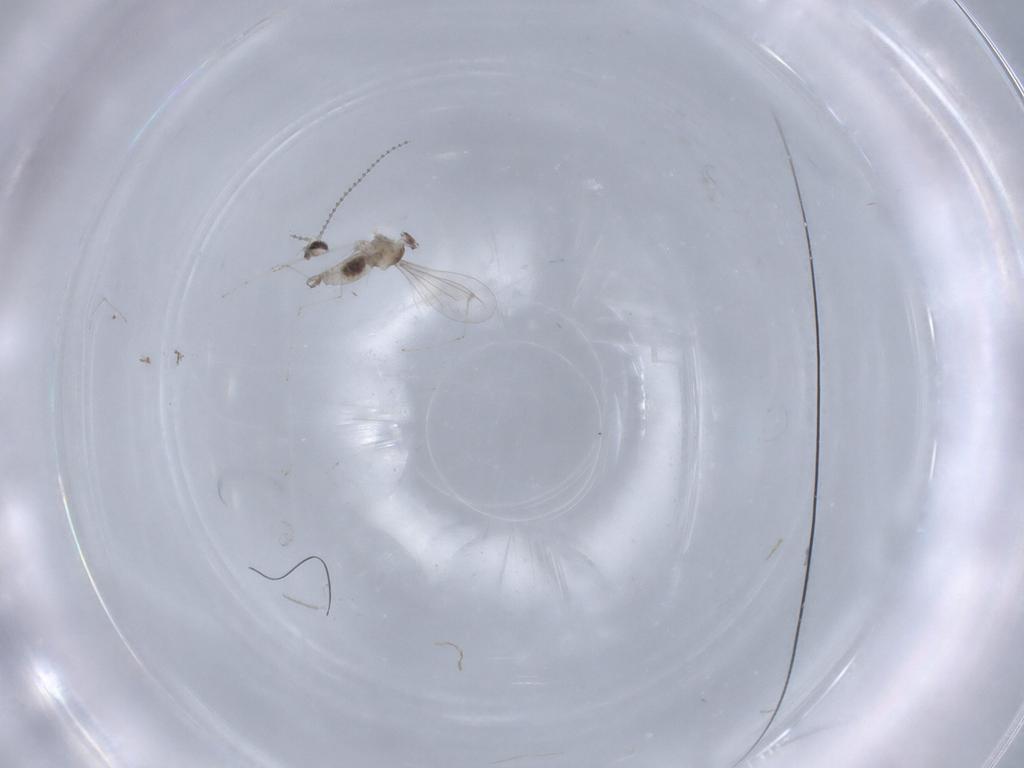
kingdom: Animalia
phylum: Arthropoda
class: Insecta
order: Diptera
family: Cecidomyiidae
